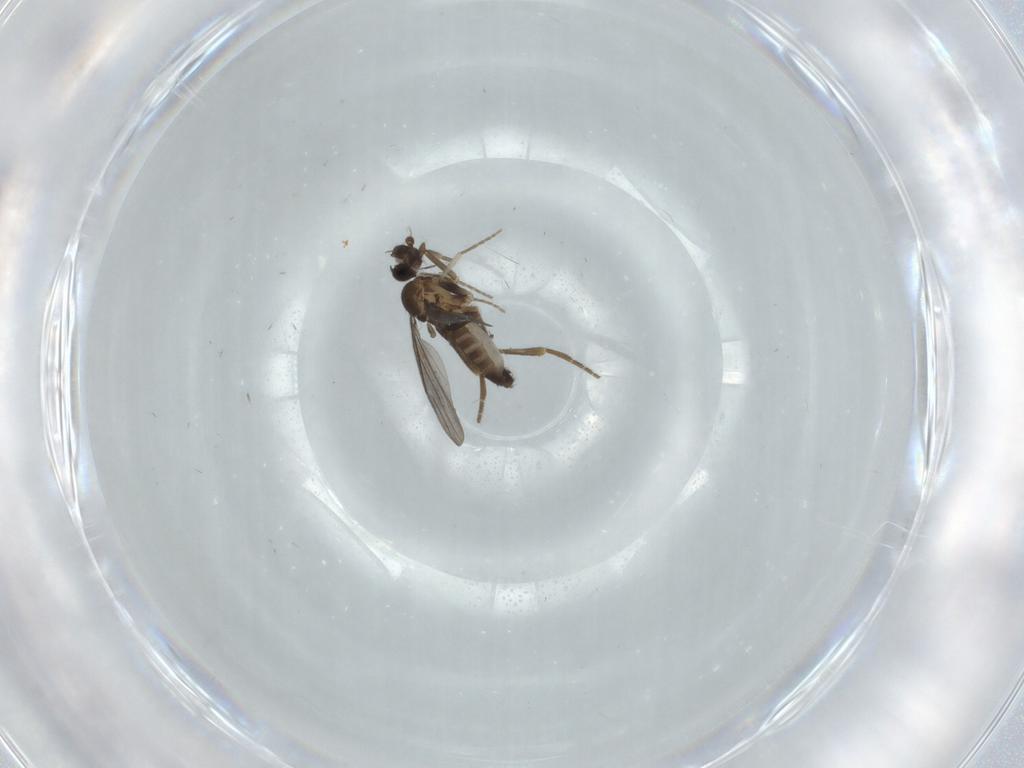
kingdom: Animalia
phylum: Arthropoda
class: Insecta
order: Diptera
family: Phoridae
